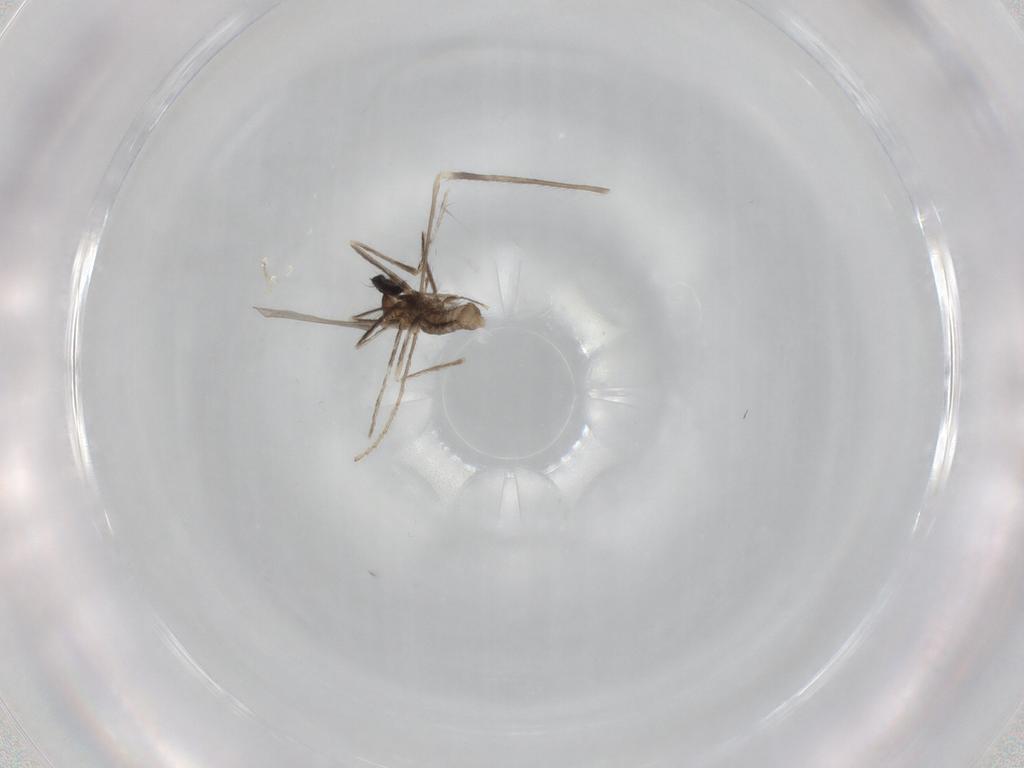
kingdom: Animalia
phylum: Arthropoda
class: Insecta
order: Diptera
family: Cecidomyiidae
